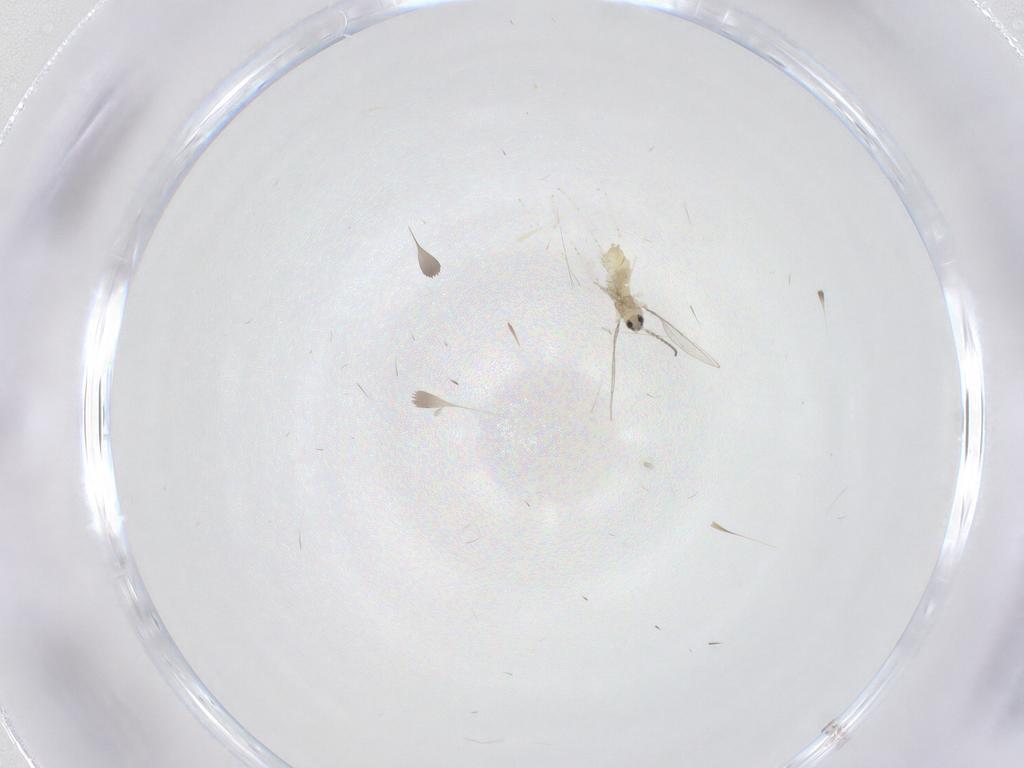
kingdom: Animalia
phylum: Arthropoda
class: Insecta
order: Diptera
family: Cecidomyiidae
